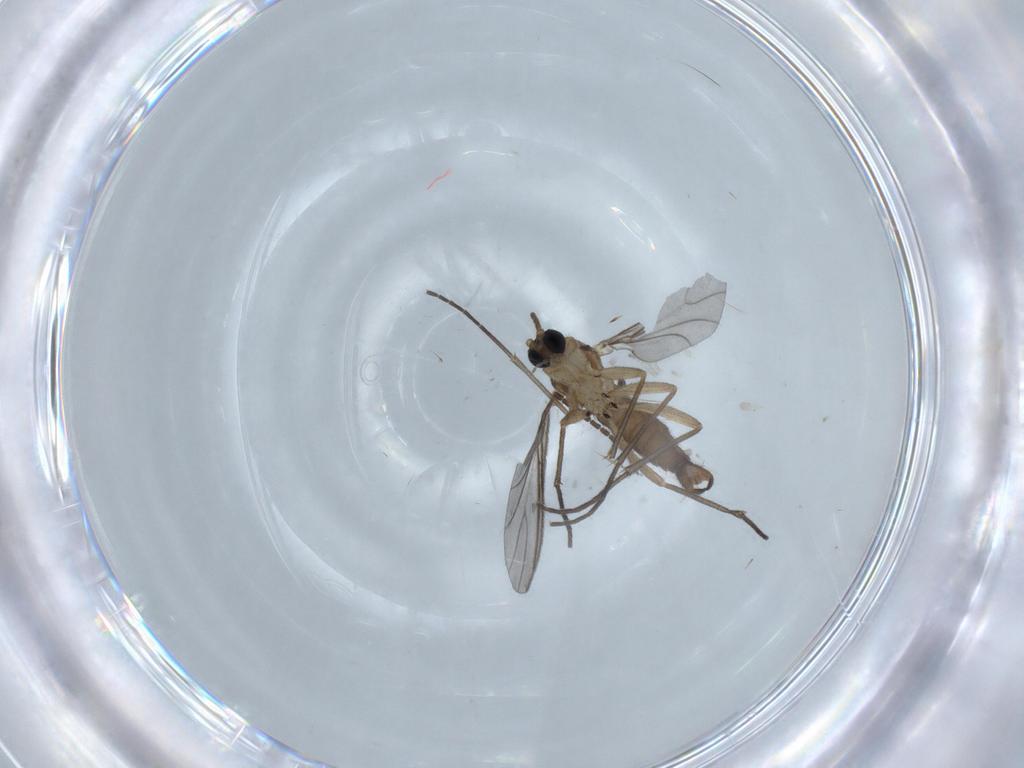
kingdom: Animalia
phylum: Arthropoda
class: Insecta
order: Diptera
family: Sciaridae
